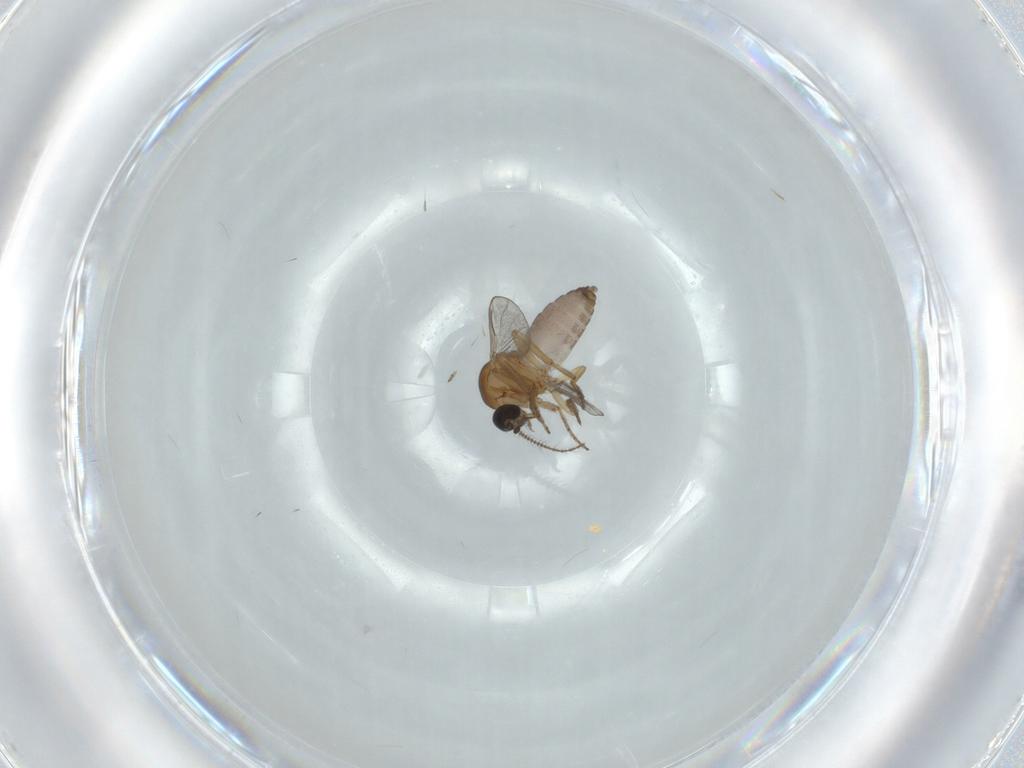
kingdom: Animalia
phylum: Arthropoda
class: Insecta
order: Diptera
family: Ceratopogonidae
